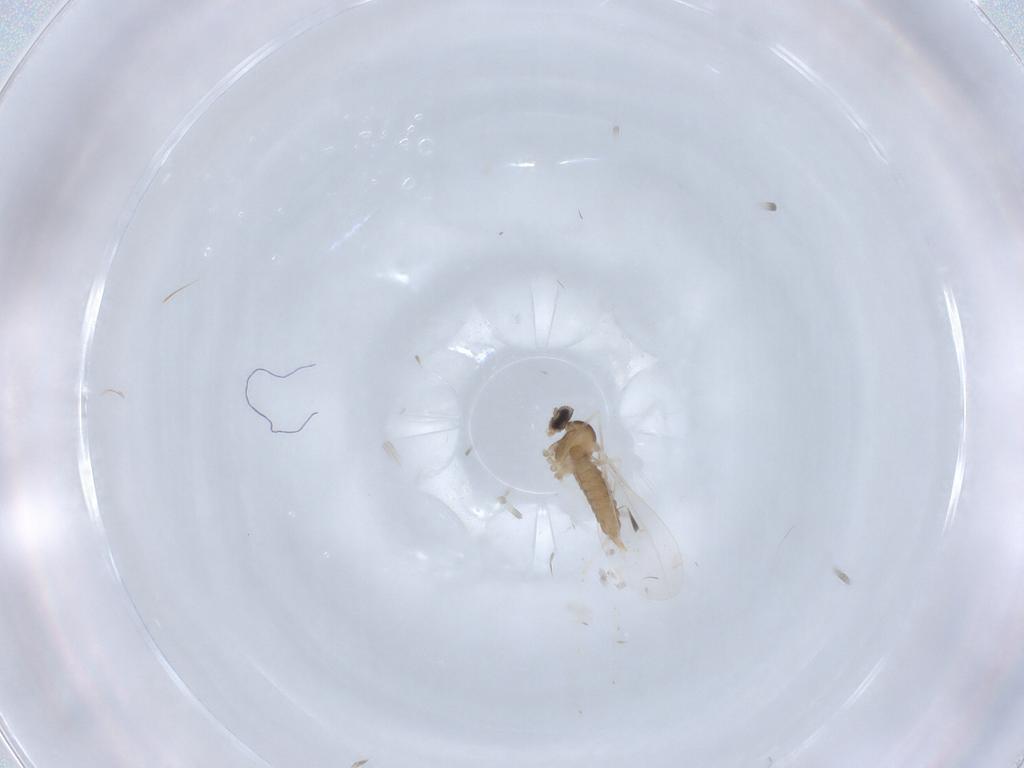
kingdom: Animalia
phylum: Arthropoda
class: Insecta
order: Diptera
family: Cecidomyiidae
